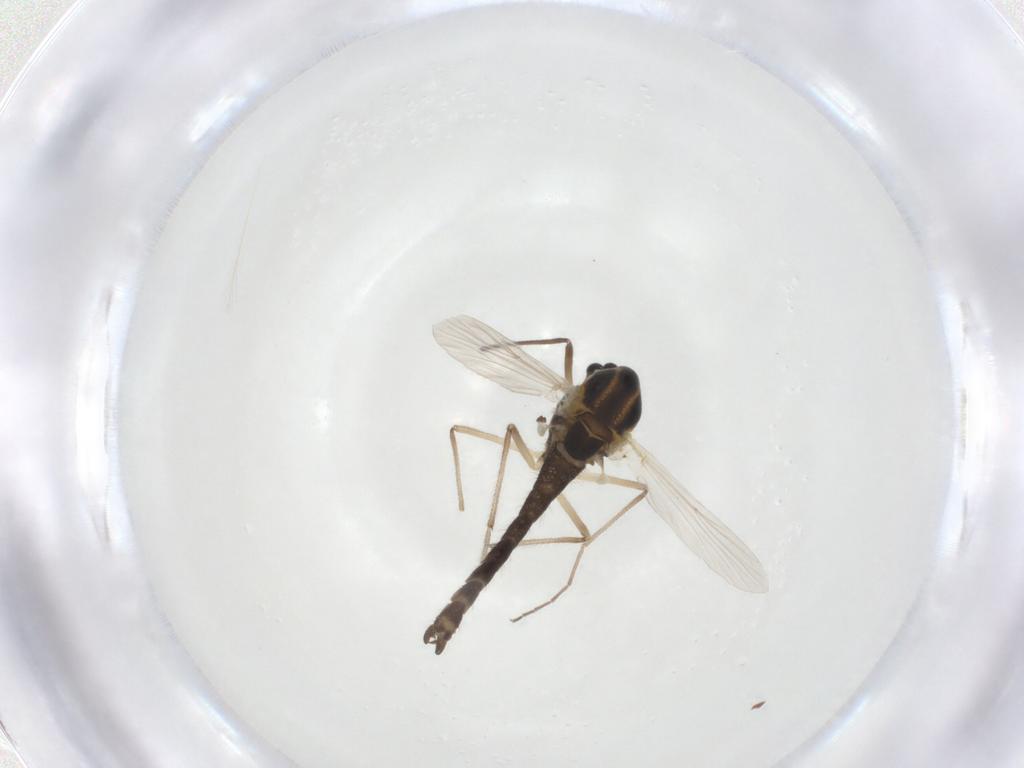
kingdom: Animalia
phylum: Arthropoda
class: Insecta
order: Diptera
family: Chironomidae
